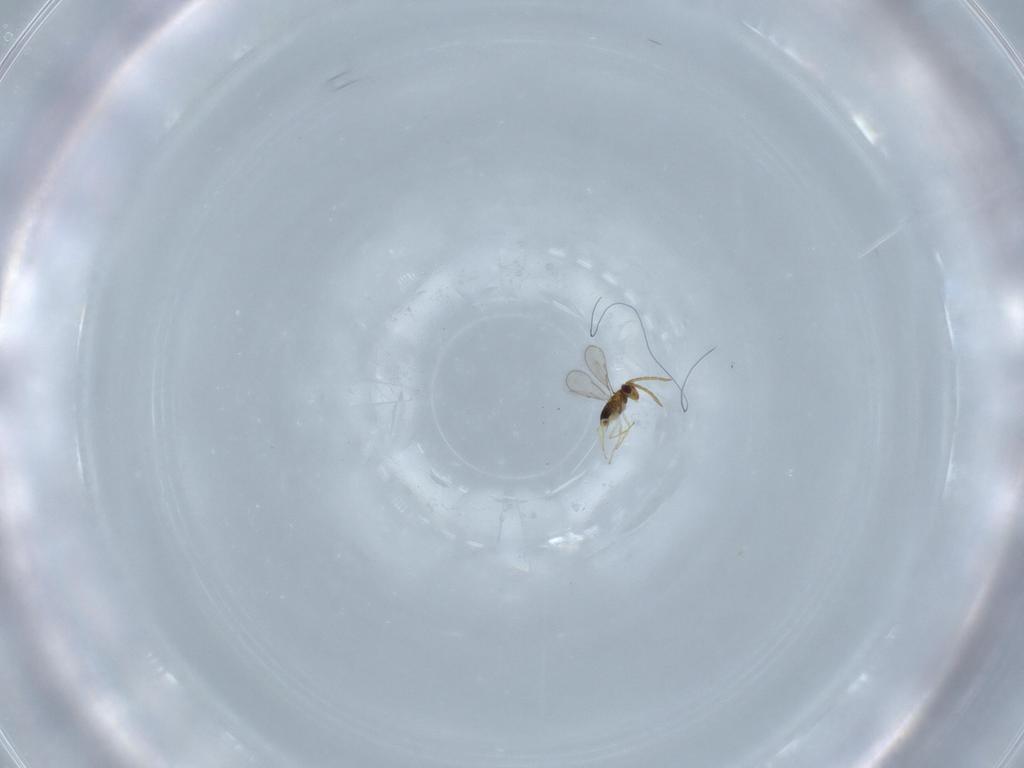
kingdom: Animalia
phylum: Arthropoda
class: Insecta
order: Hymenoptera
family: Aphelinidae
